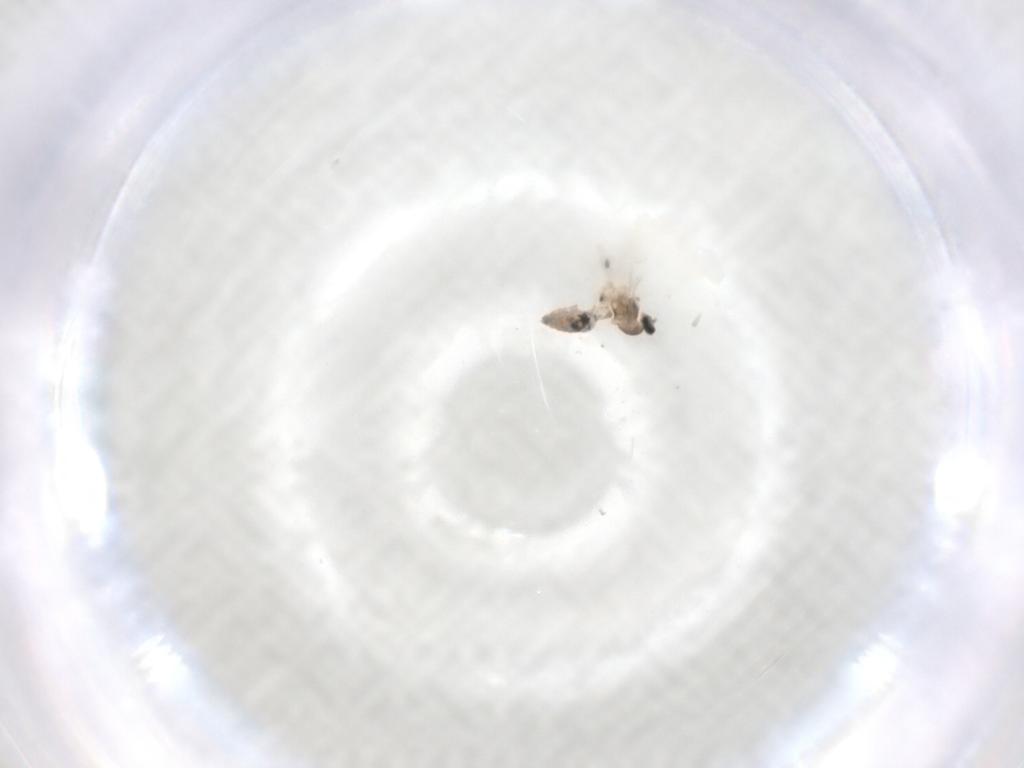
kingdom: Animalia
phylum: Arthropoda
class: Insecta
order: Diptera
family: Cecidomyiidae
